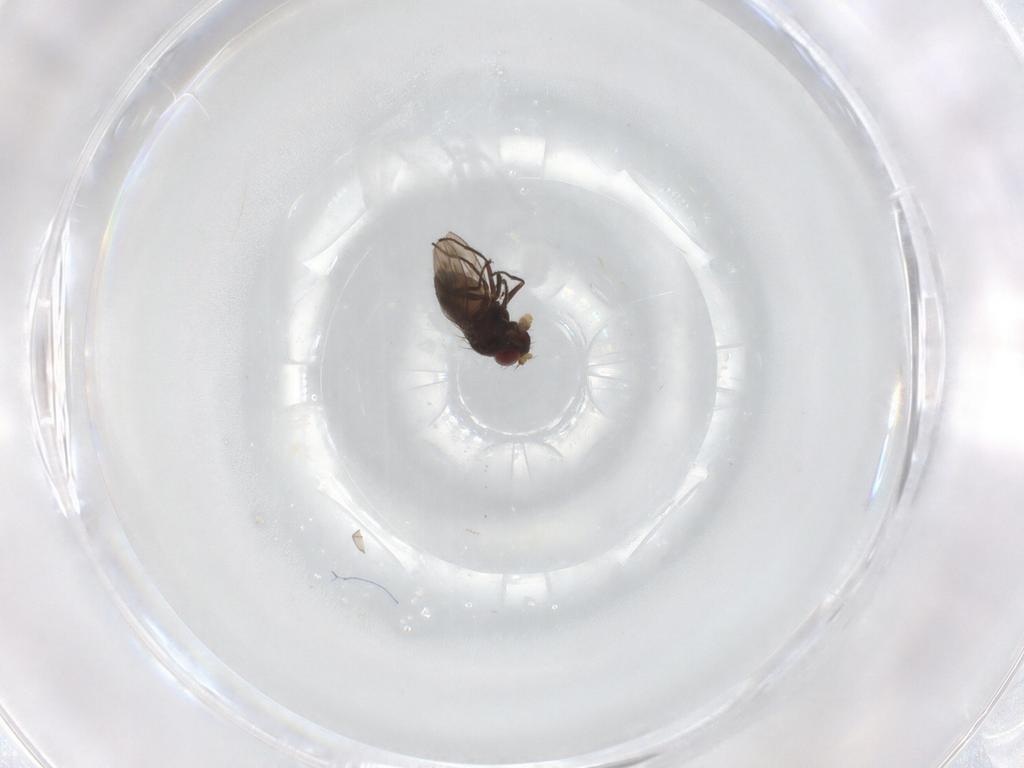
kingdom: Animalia
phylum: Arthropoda
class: Insecta
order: Diptera
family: Ephydridae
